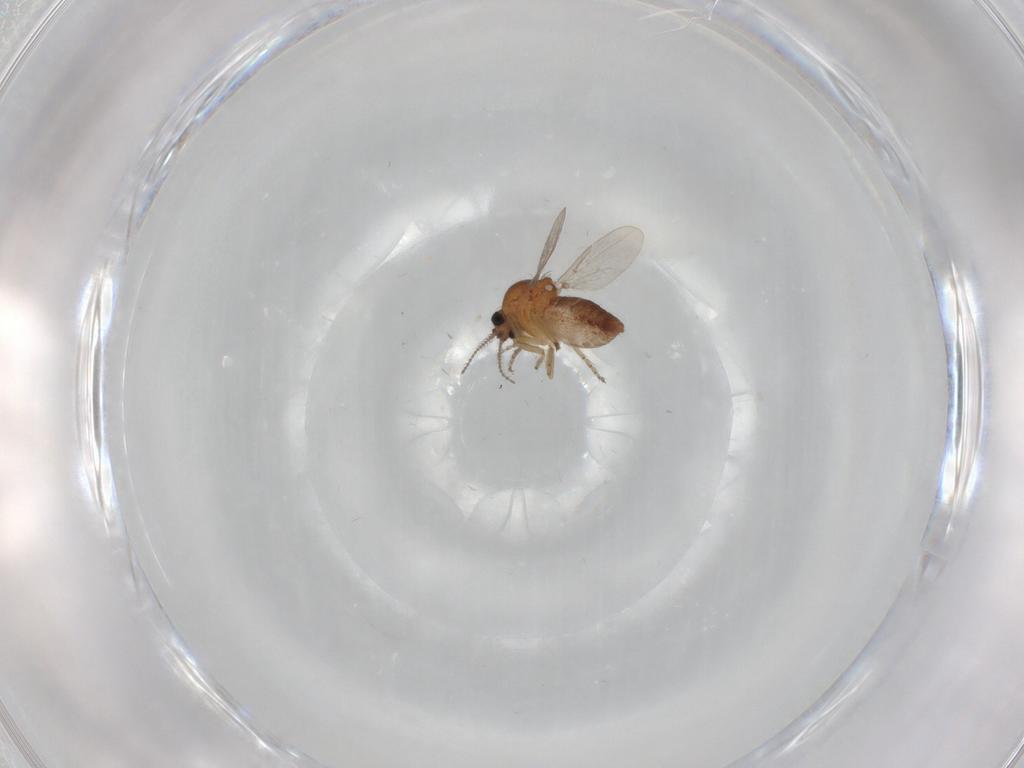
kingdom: Animalia
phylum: Arthropoda
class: Insecta
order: Diptera
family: Ceratopogonidae
